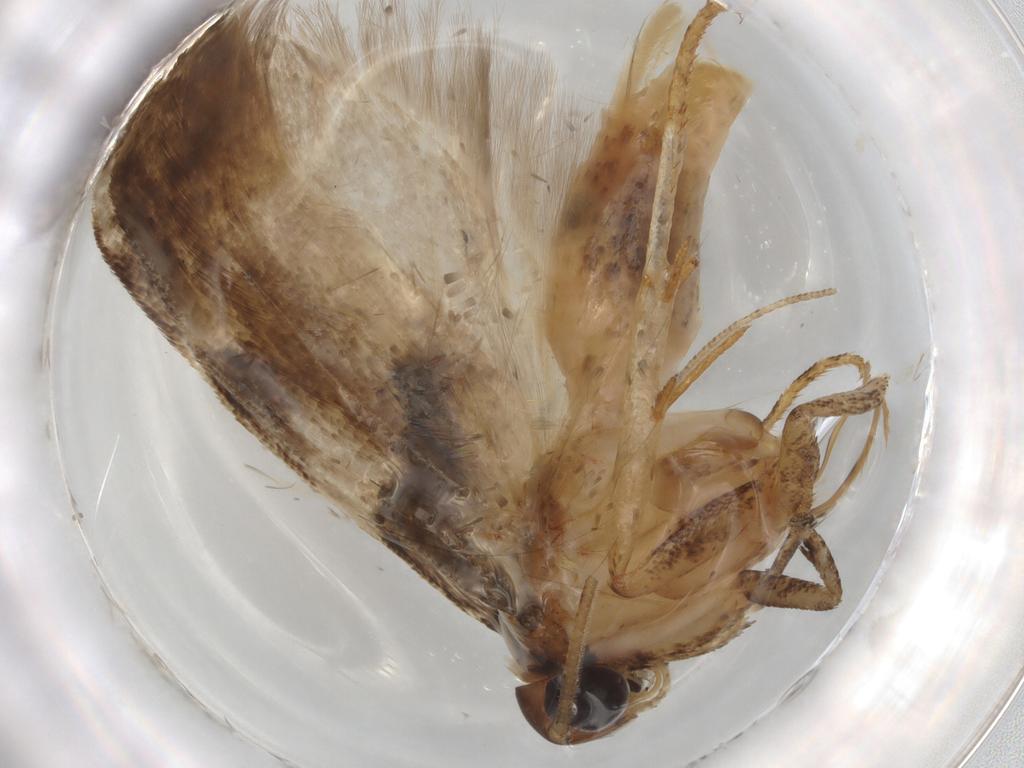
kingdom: Animalia
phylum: Arthropoda
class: Insecta
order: Lepidoptera
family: Gelechiidae
